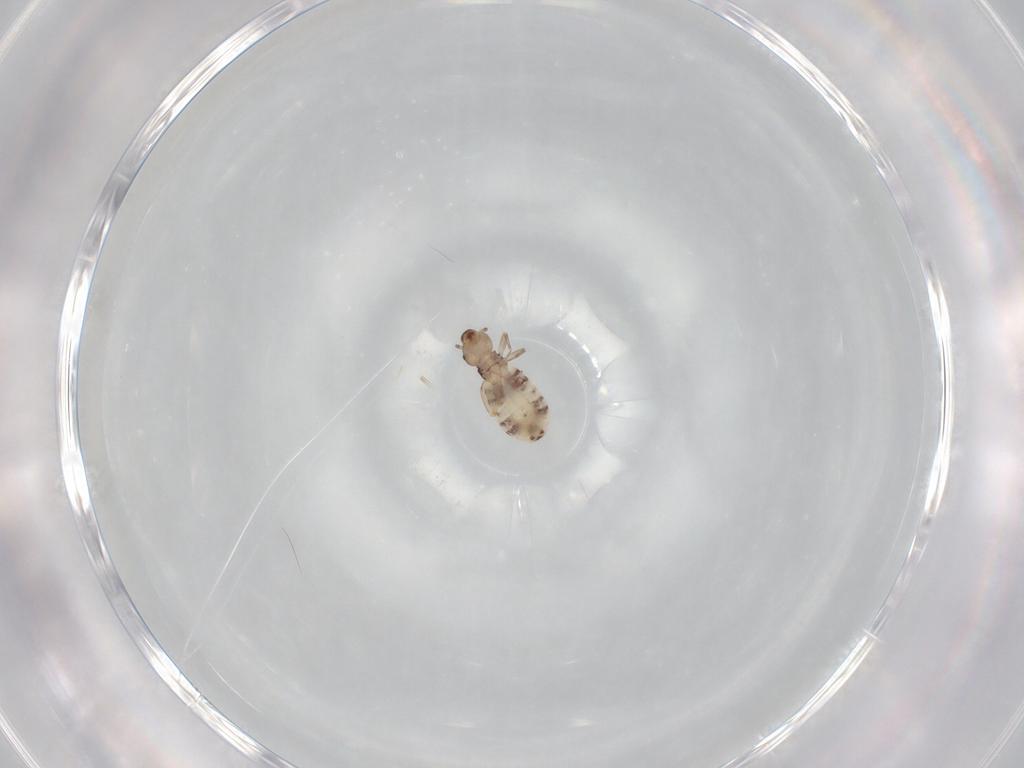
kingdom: Animalia
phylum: Arthropoda
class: Insecta
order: Psocodea
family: Liposcelididae
